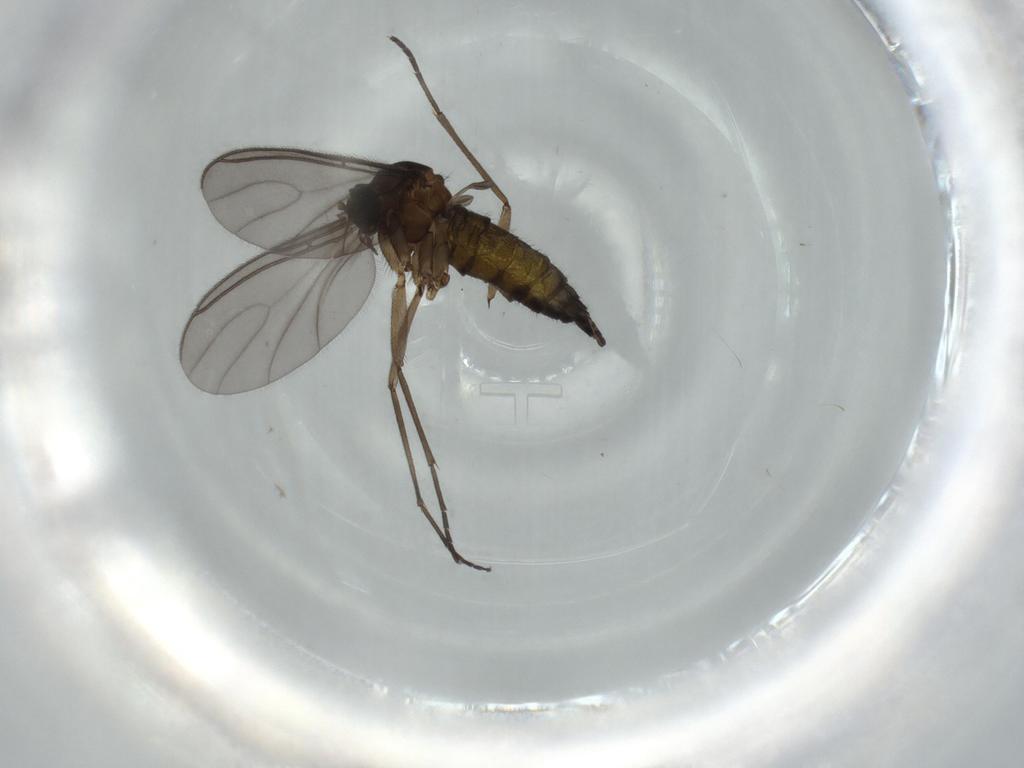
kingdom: Animalia
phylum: Arthropoda
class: Insecta
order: Diptera
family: Sciaridae
